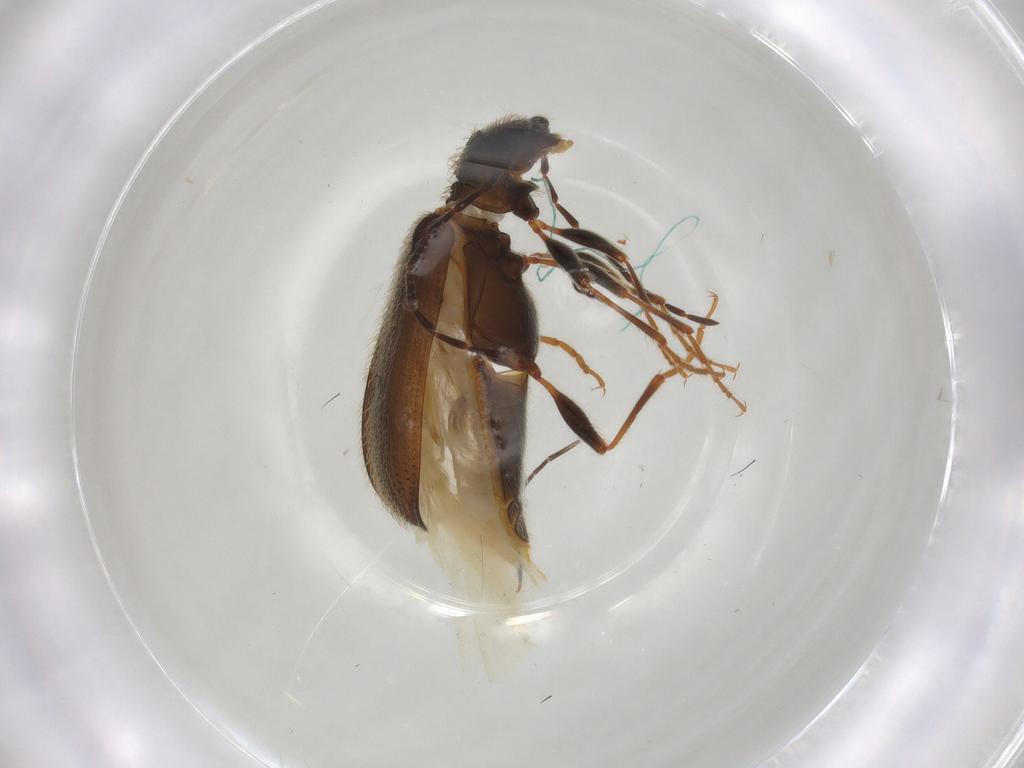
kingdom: Animalia
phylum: Arthropoda
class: Insecta
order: Coleoptera
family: Ptinidae
